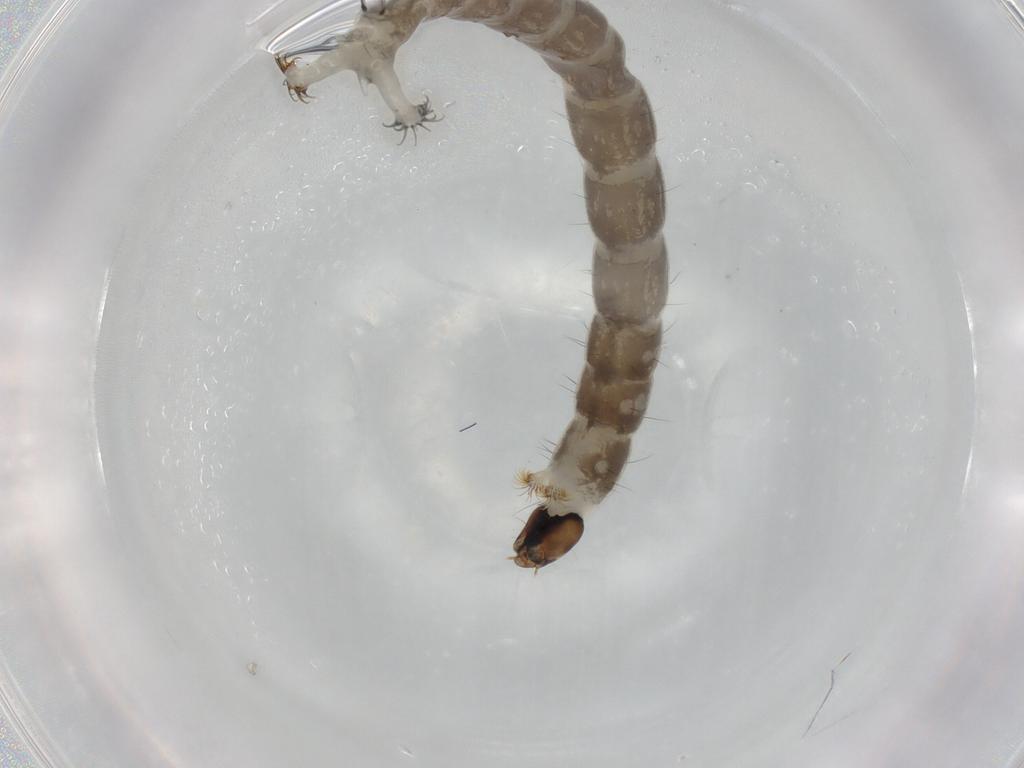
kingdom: Animalia
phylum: Arthropoda
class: Insecta
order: Diptera
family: Chironomidae
